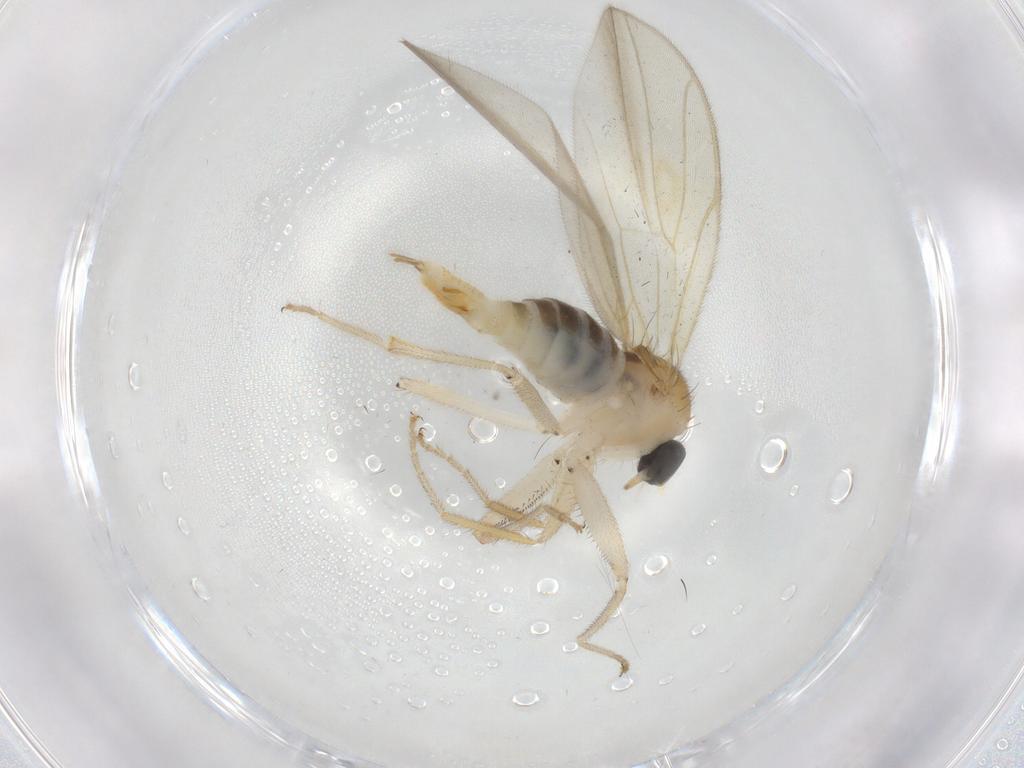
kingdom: Animalia
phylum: Arthropoda
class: Insecta
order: Diptera
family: Hybotidae
